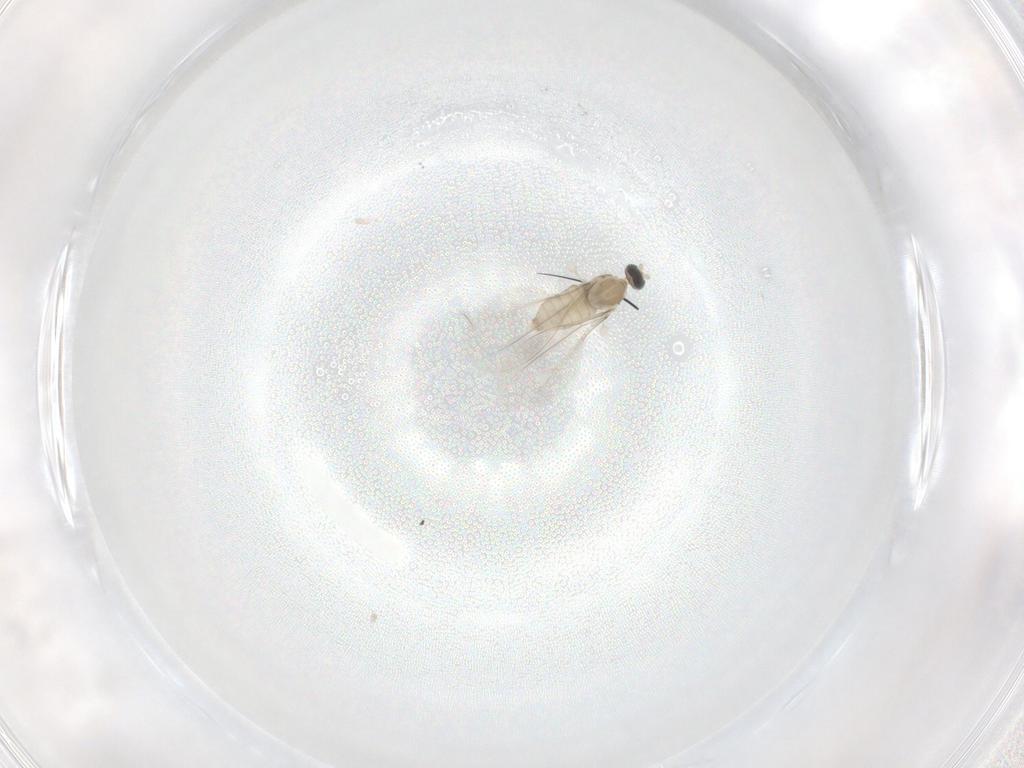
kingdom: Animalia
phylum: Arthropoda
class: Insecta
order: Diptera
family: Cecidomyiidae
